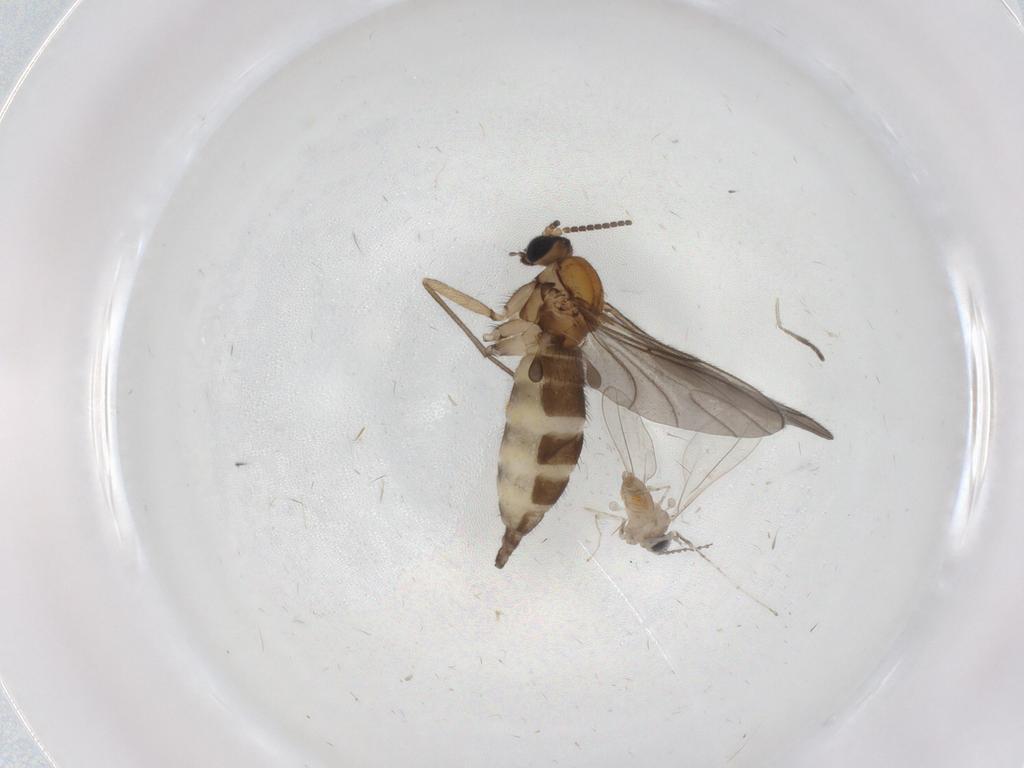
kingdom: Animalia
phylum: Arthropoda
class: Insecta
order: Diptera
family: Sciaridae
